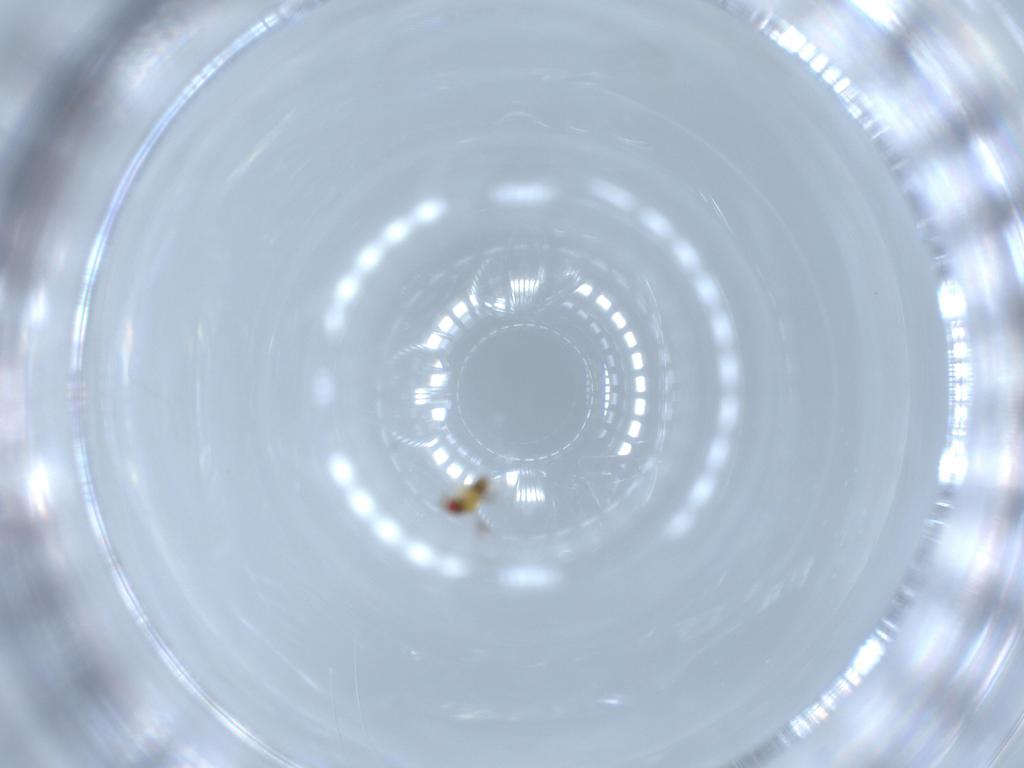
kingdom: Animalia
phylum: Arthropoda
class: Insecta
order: Hymenoptera
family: Trichogrammatidae
